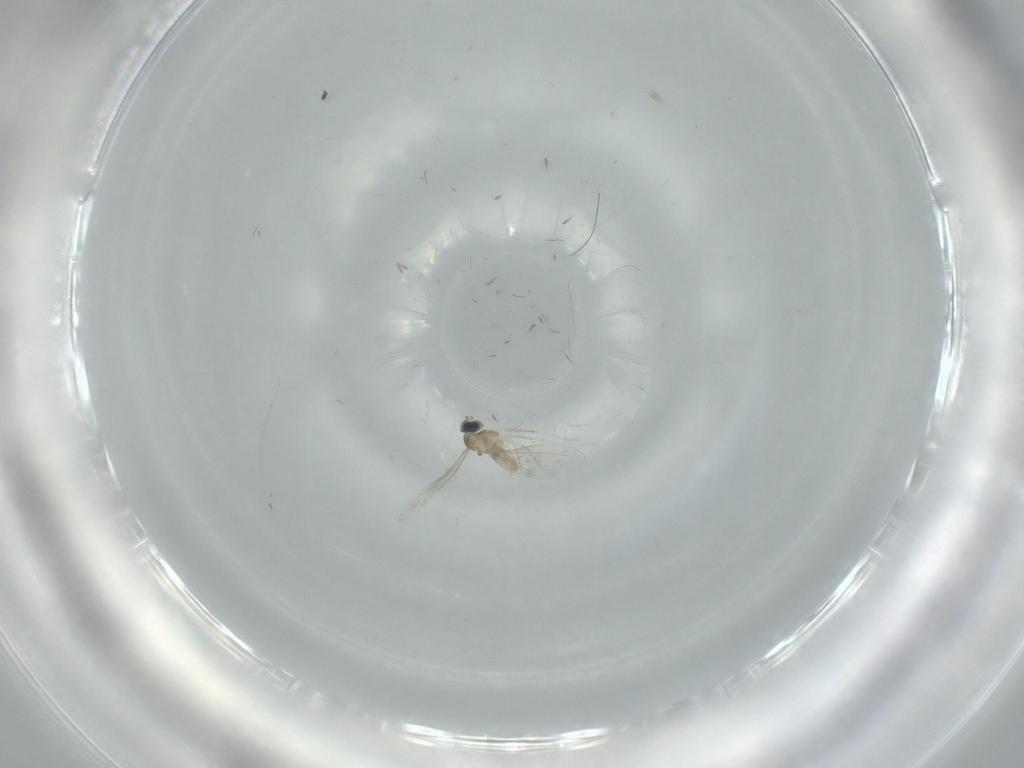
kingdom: Animalia
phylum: Arthropoda
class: Insecta
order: Diptera
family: Cecidomyiidae
